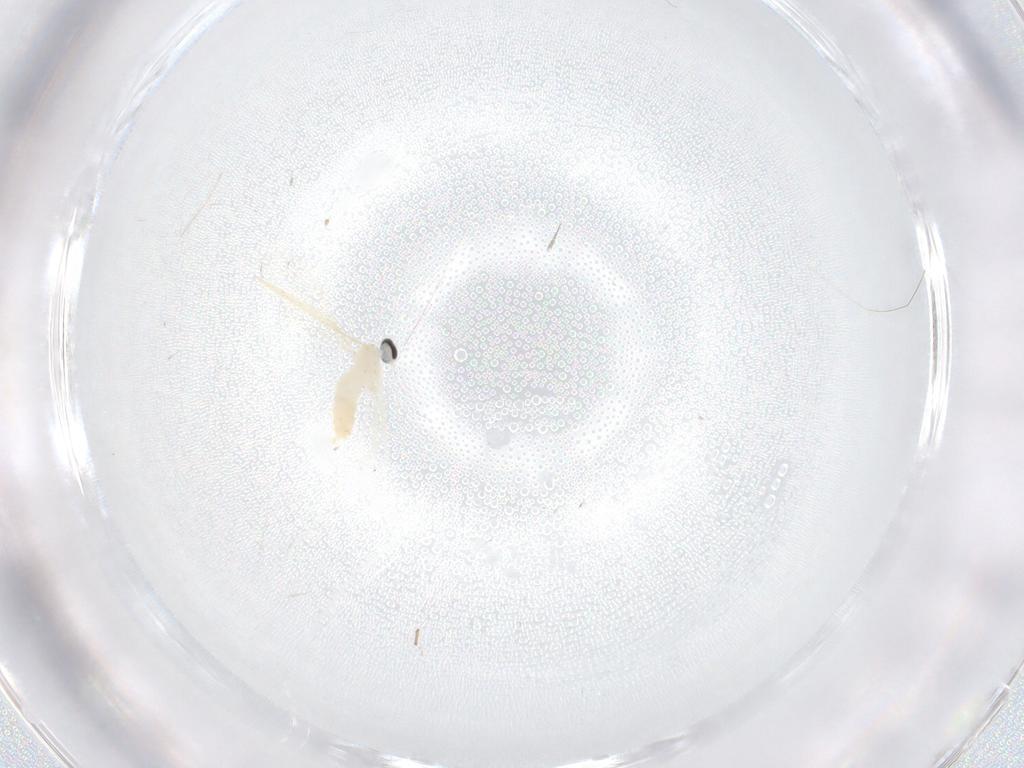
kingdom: Animalia
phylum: Arthropoda
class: Insecta
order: Diptera
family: Cecidomyiidae
